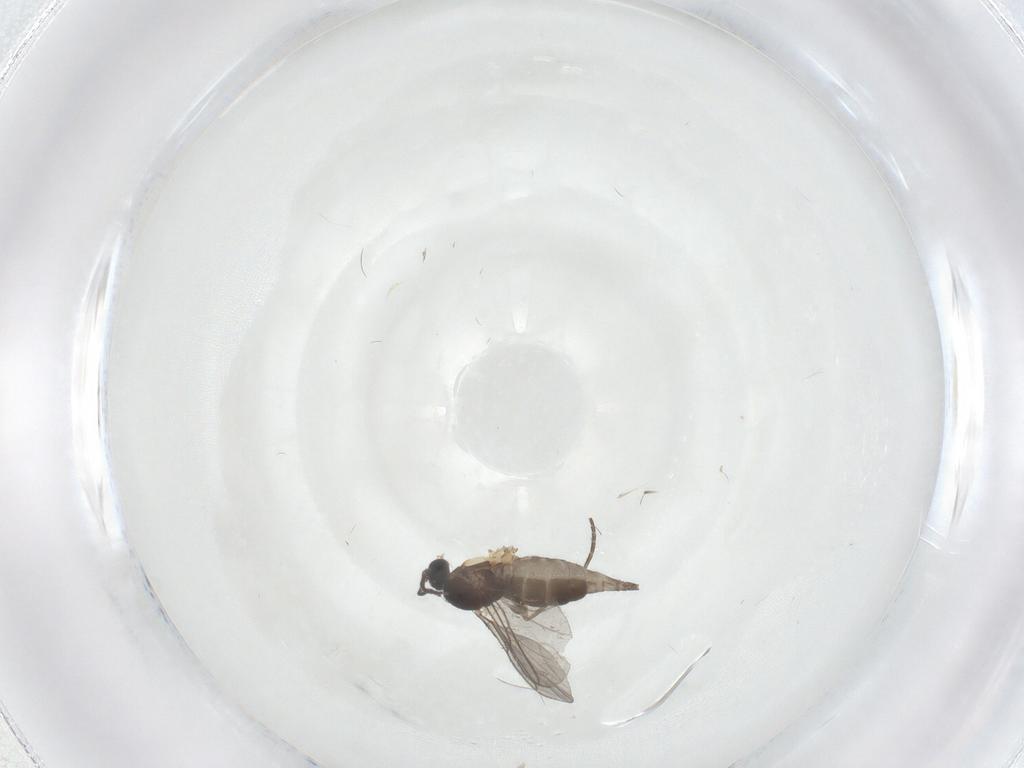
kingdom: Animalia
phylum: Arthropoda
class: Insecta
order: Diptera
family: Sciaridae
